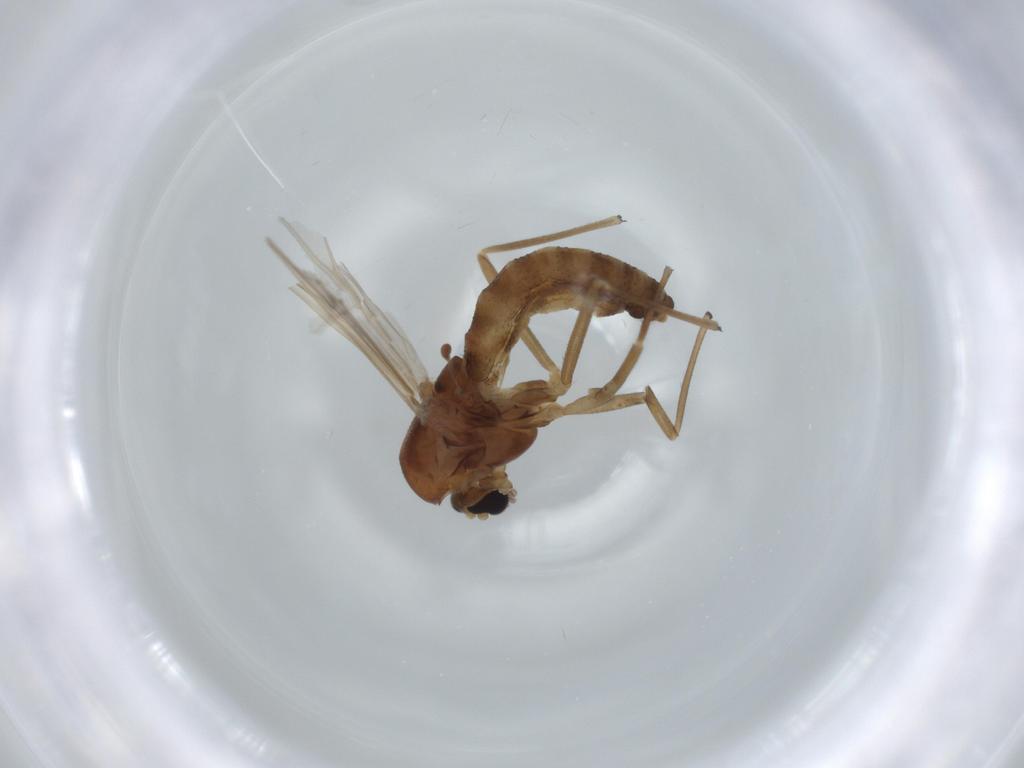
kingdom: Animalia
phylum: Arthropoda
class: Insecta
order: Diptera
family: Chironomidae
